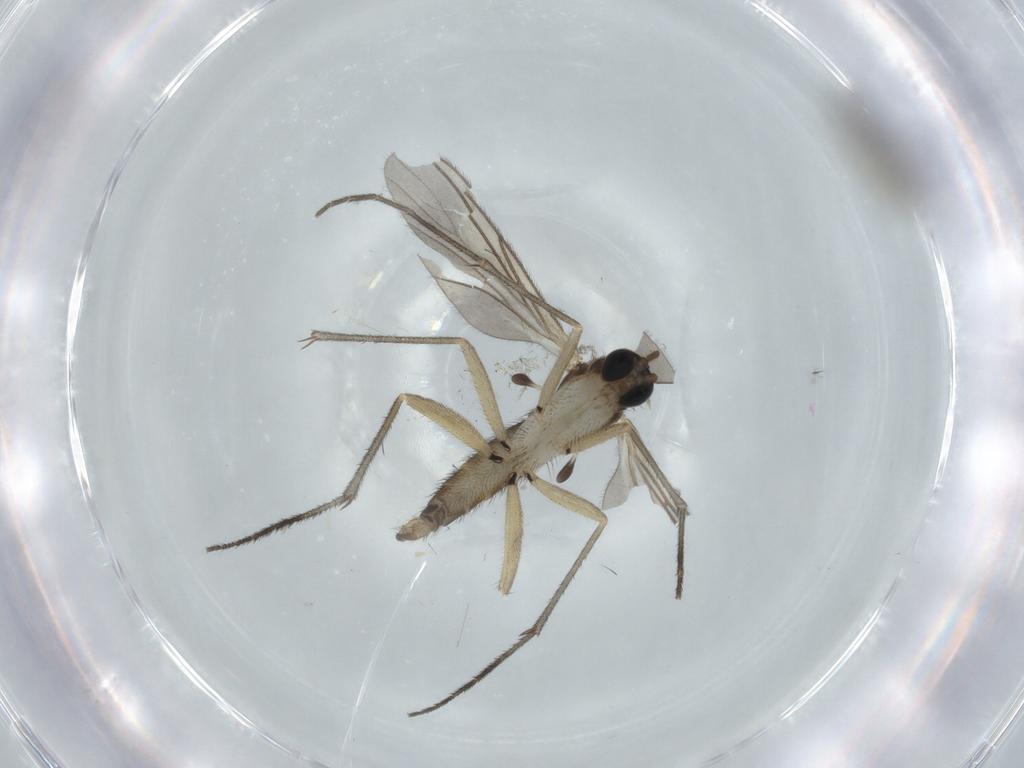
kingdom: Animalia
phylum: Arthropoda
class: Insecta
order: Diptera
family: Sciaridae
